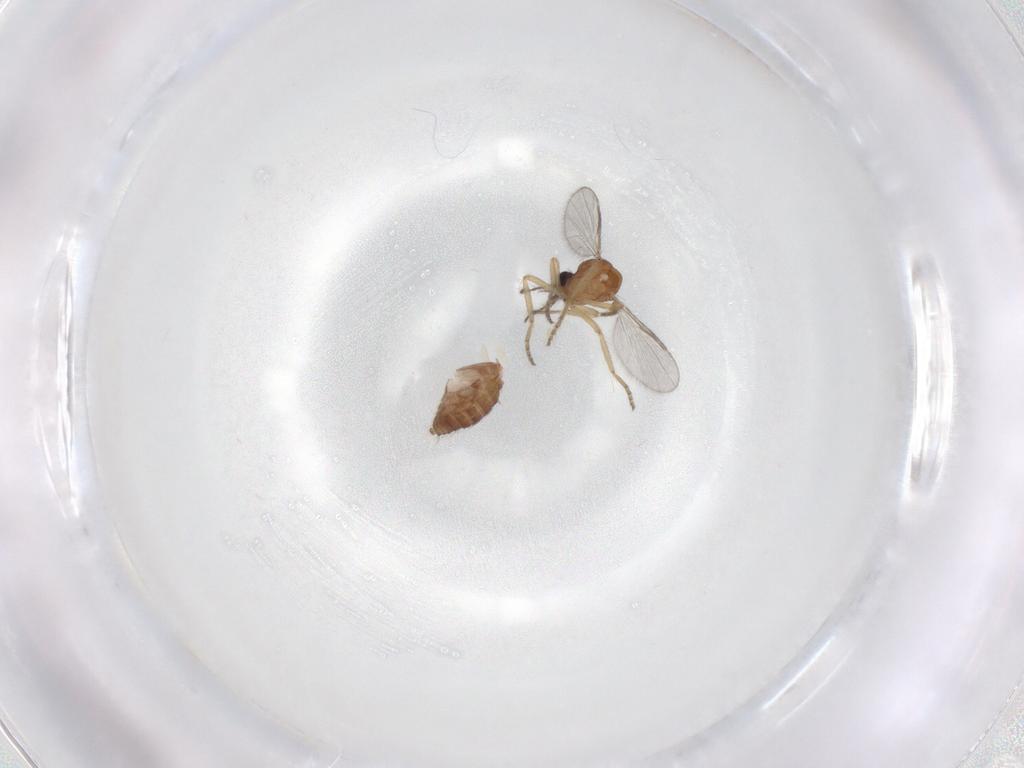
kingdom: Animalia
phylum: Arthropoda
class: Insecta
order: Diptera
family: Ceratopogonidae
